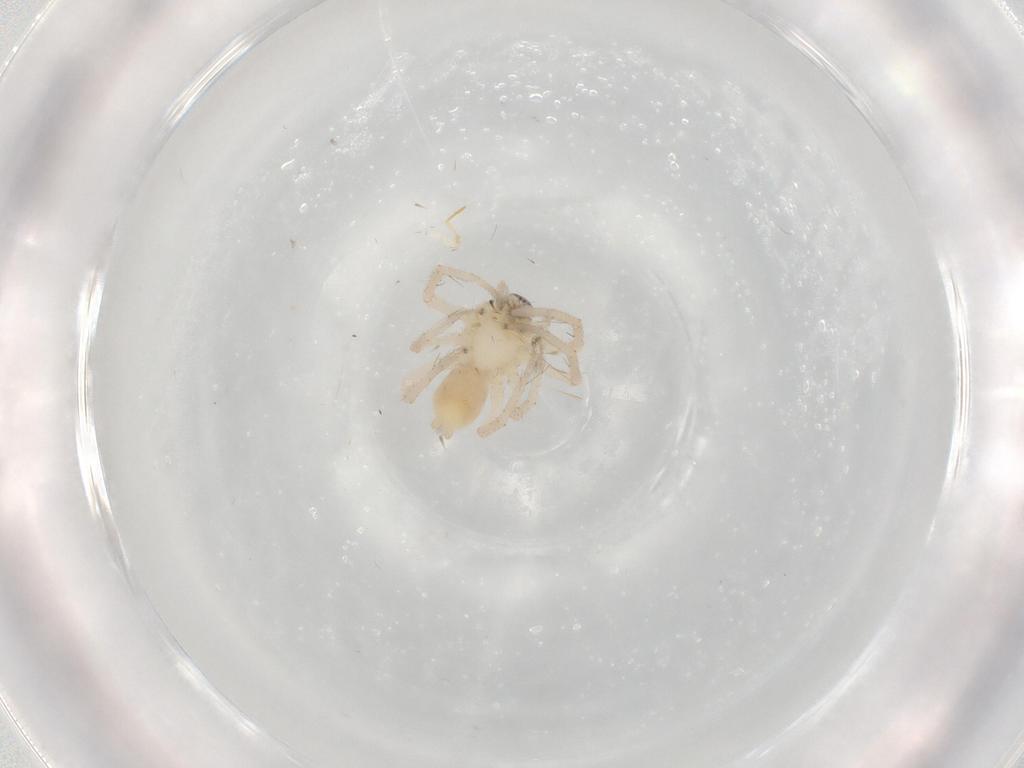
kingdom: Animalia
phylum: Arthropoda
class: Arachnida
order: Araneae
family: Anyphaenidae
